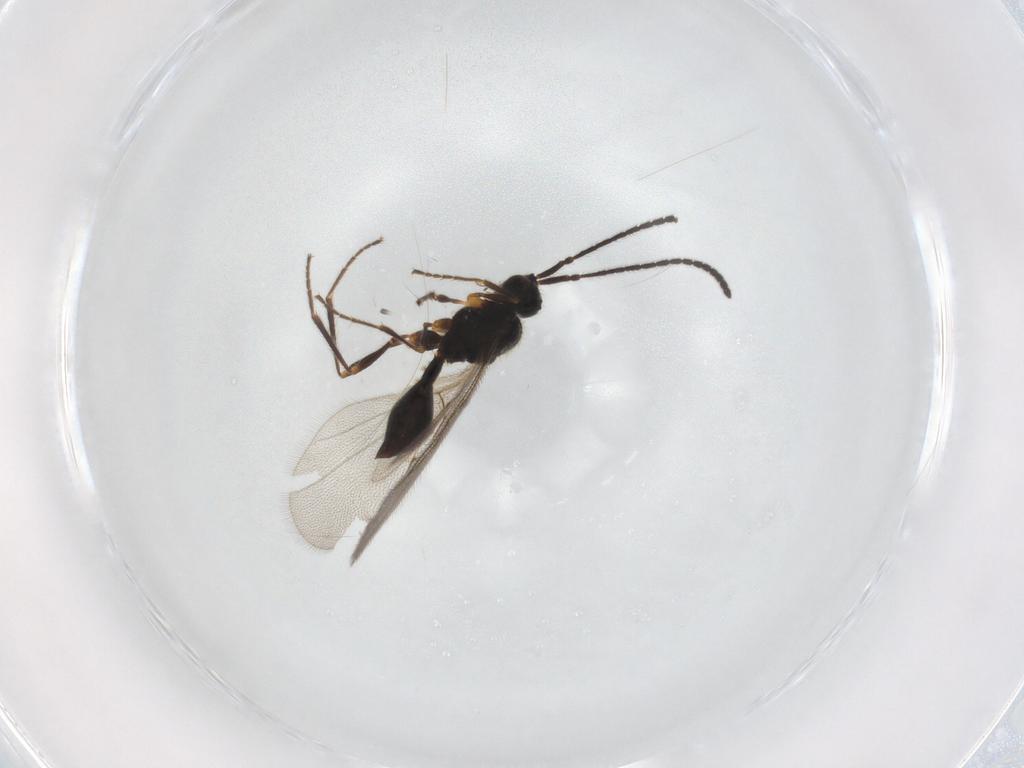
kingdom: Animalia
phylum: Arthropoda
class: Insecta
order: Hymenoptera
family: Diapriidae
